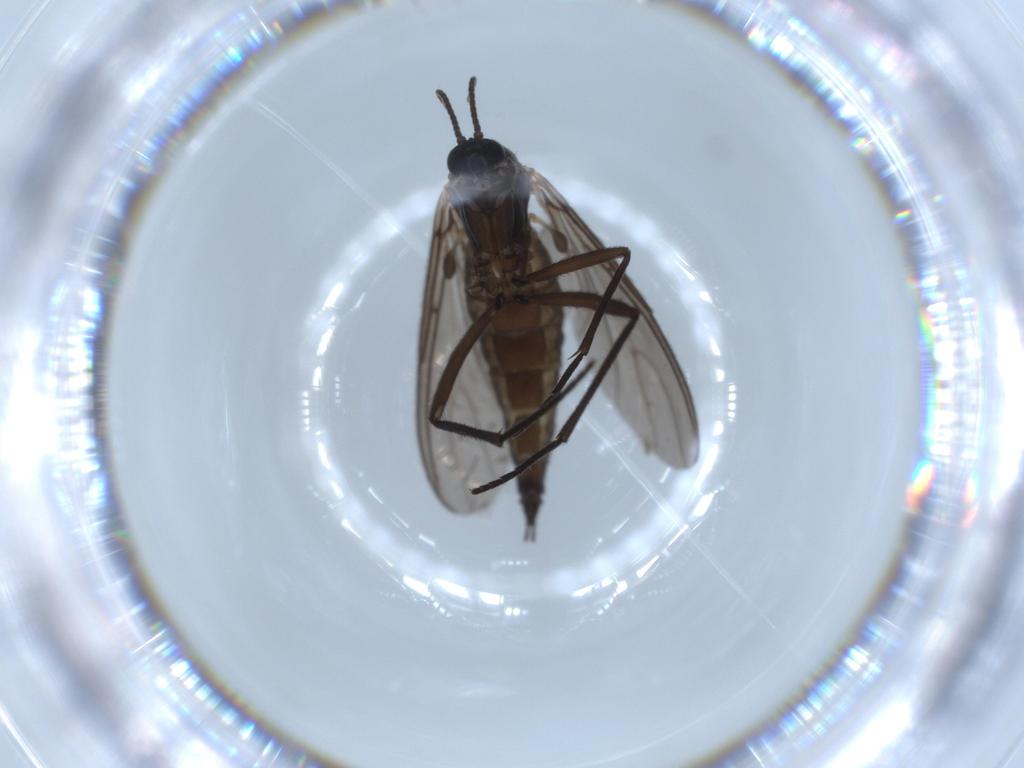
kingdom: Animalia
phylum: Arthropoda
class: Insecta
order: Diptera
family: Sciaridae
